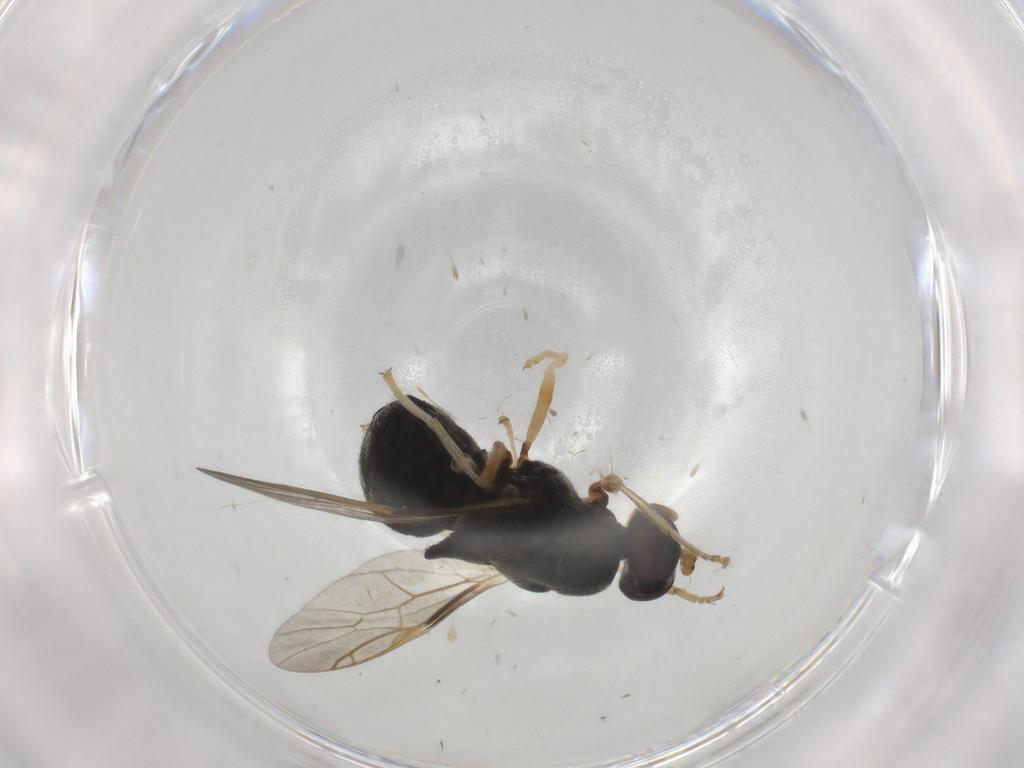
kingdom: Animalia
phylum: Arthropoda
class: Insecta
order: Diptera
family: Stratiomyidae
